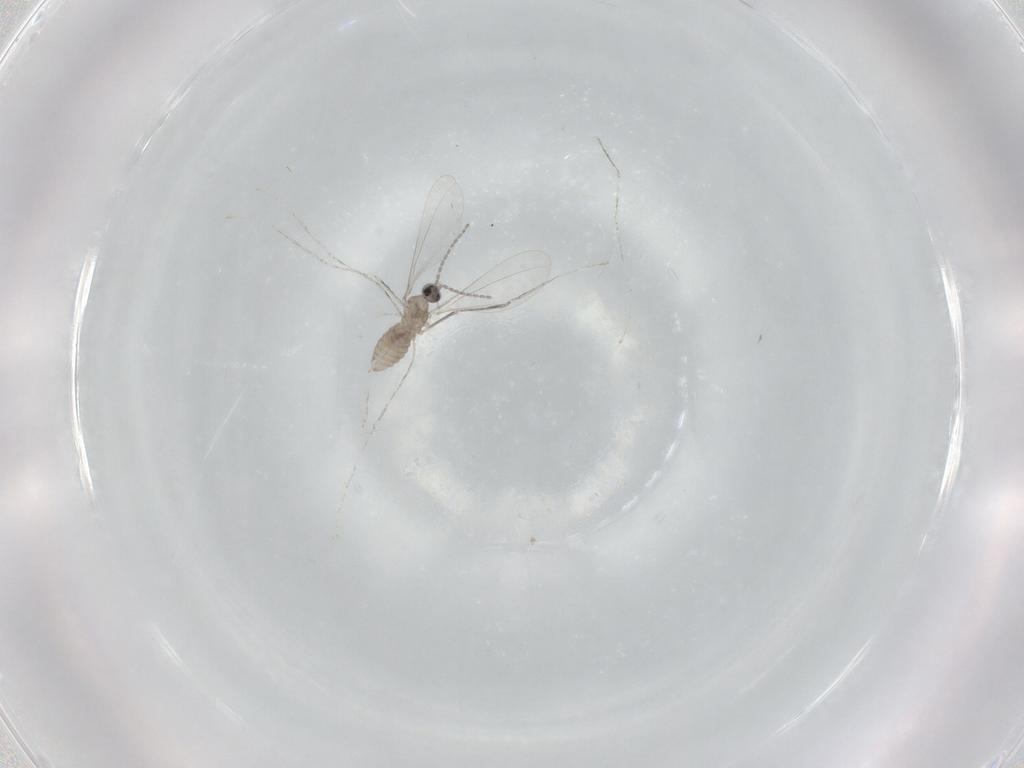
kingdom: Animalia
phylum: Arthropoda
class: Insecta
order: Diptera
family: Cecidomyiidae
